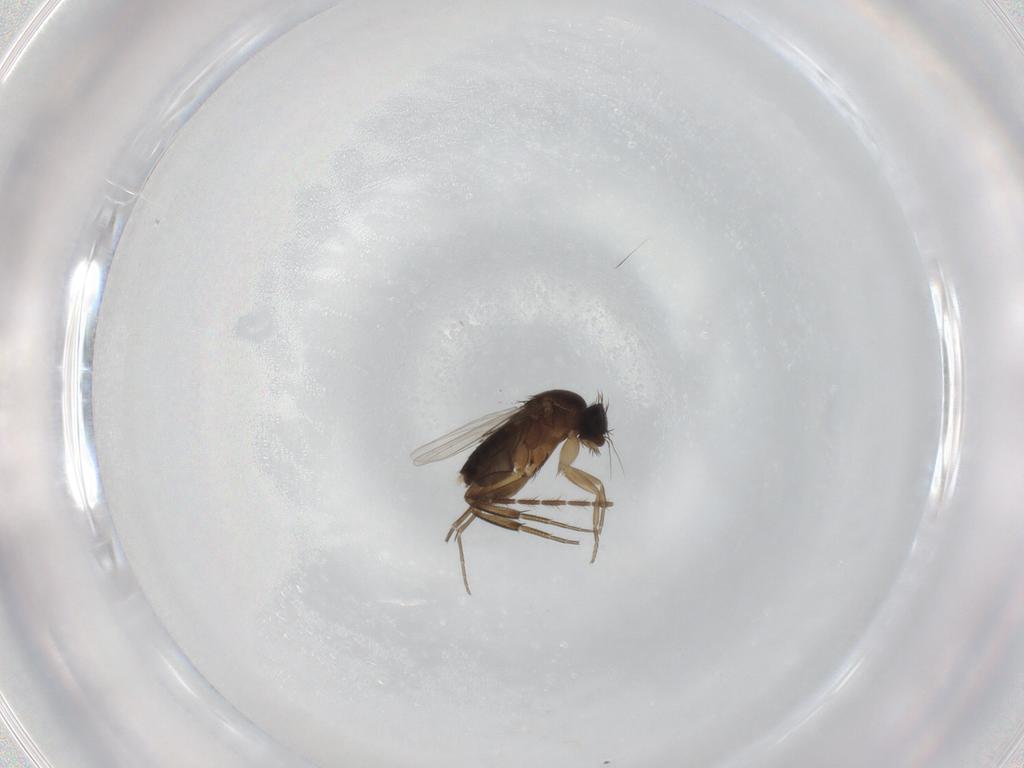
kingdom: Animalia
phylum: Arthropoda
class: Insecta
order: Diptera
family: Phoridae
